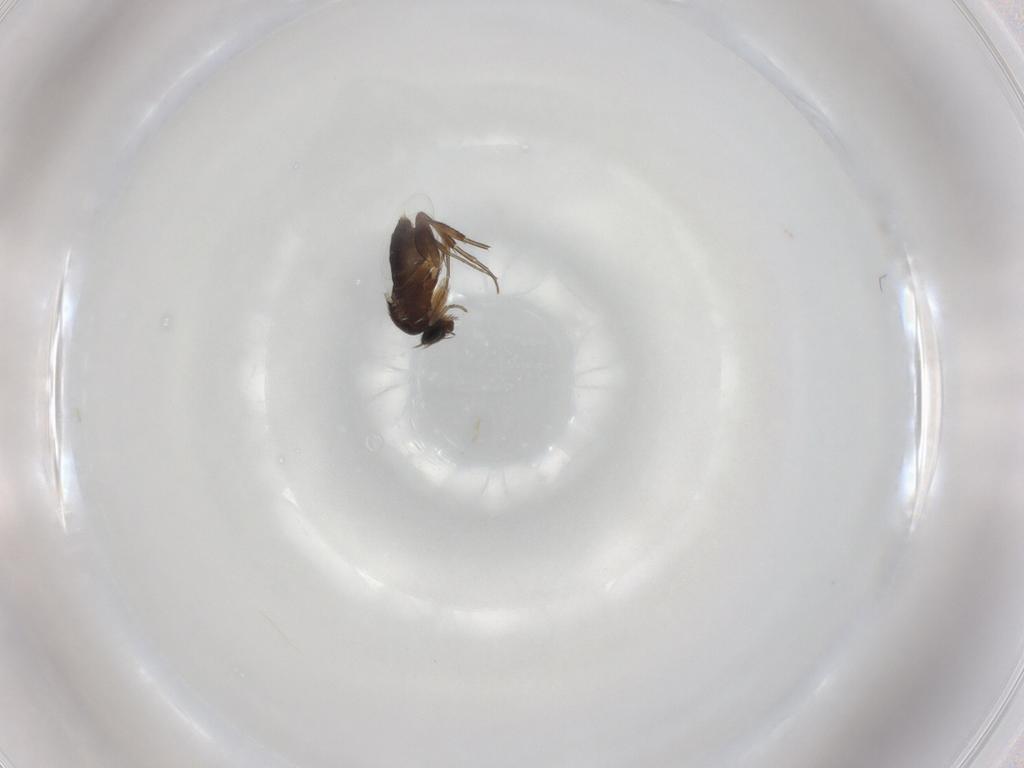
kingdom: Animalia
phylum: Arthropoda
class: Insecta
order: Diptera
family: Phoridae
